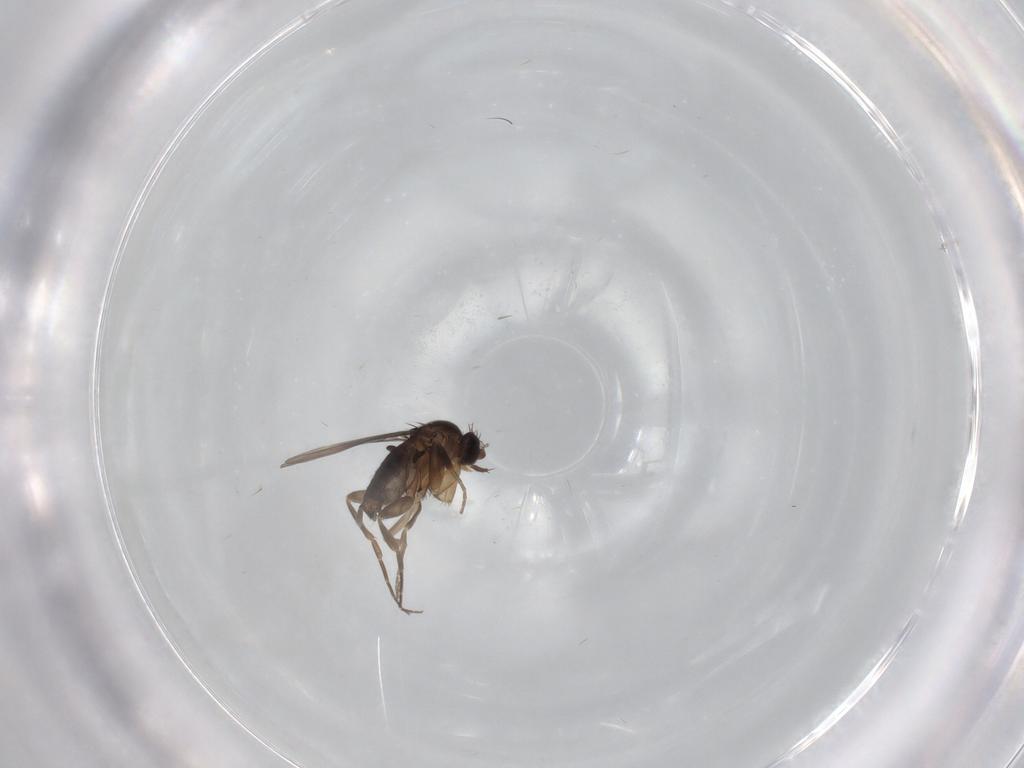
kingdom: Animalia
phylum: Arthropoda
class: Insecta
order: Diptera
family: Phoridae
